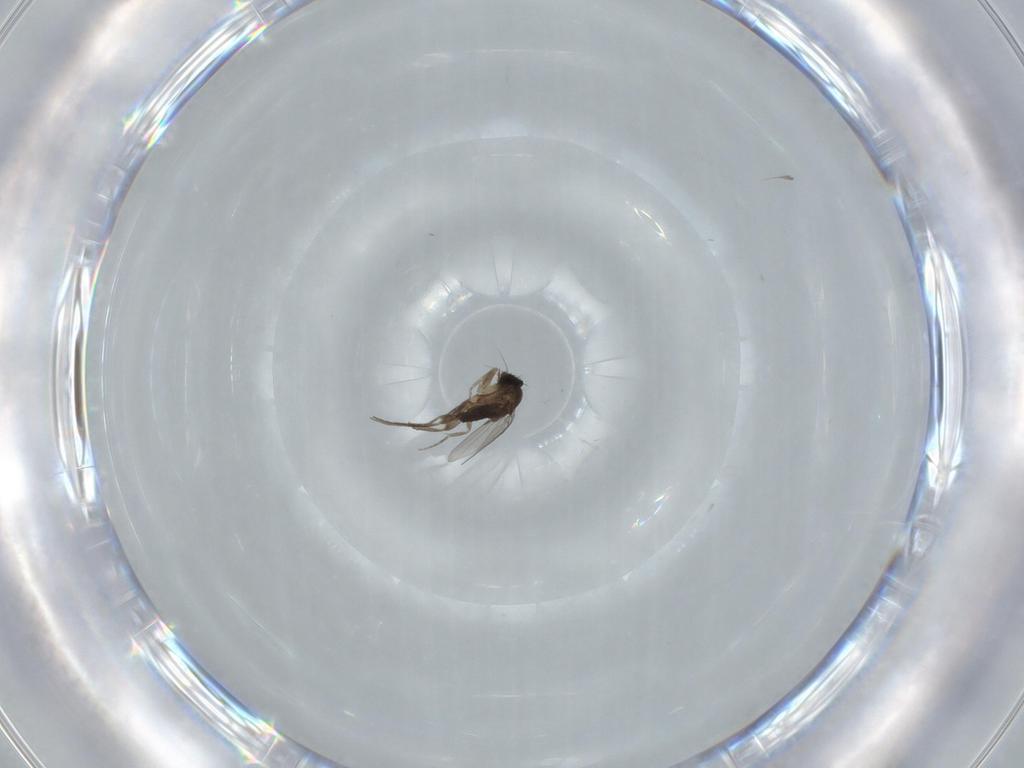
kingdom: Animalia
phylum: Arthropoda
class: Insecta
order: Diptera
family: Phoridae
